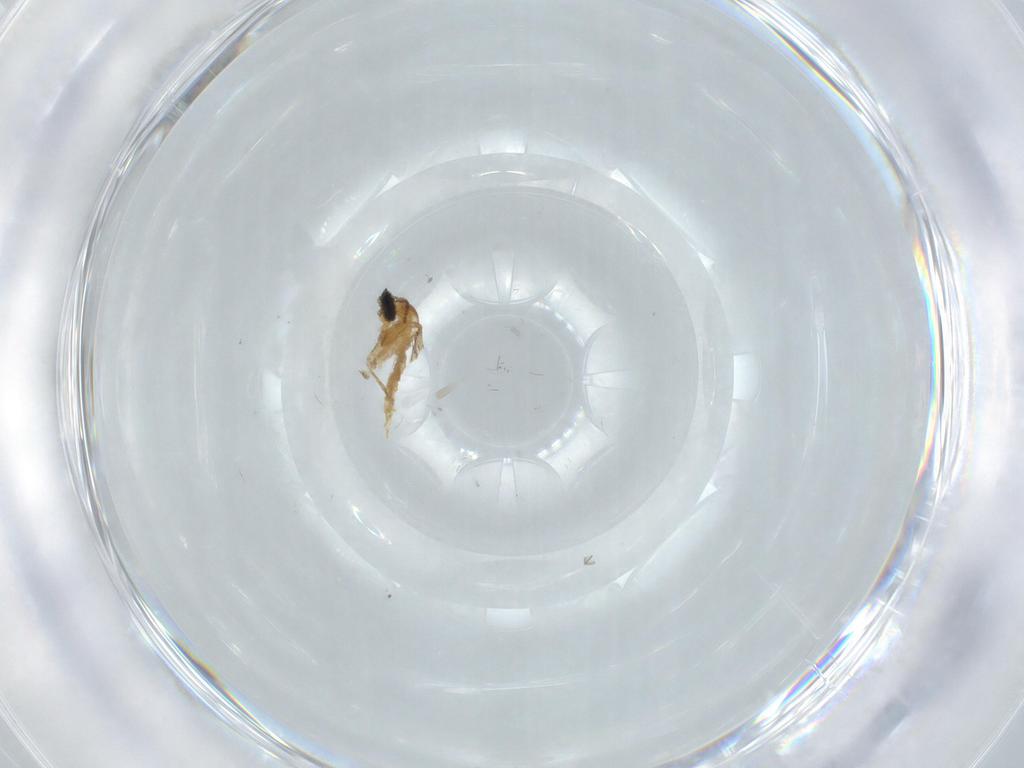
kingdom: Animalia
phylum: Arthropoda
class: Insecta
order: Diptera
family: Cecidomyiidae
